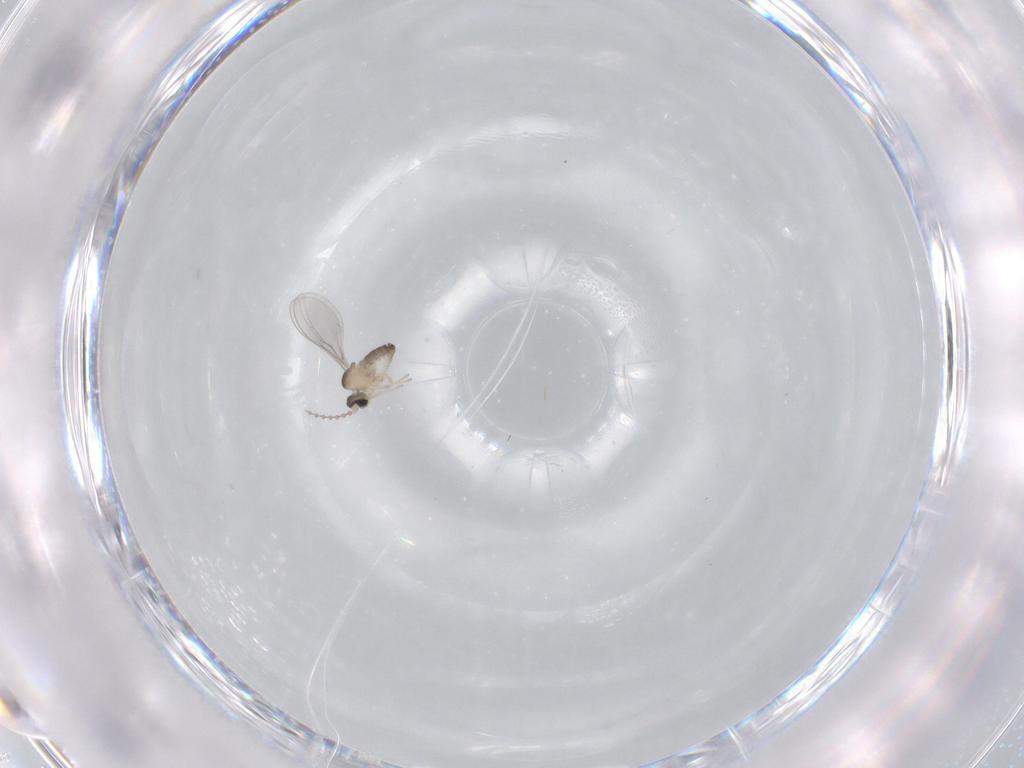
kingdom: Animalia
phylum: Arthropoda
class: Insecta
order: Diptera
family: Cecidomyiidae
